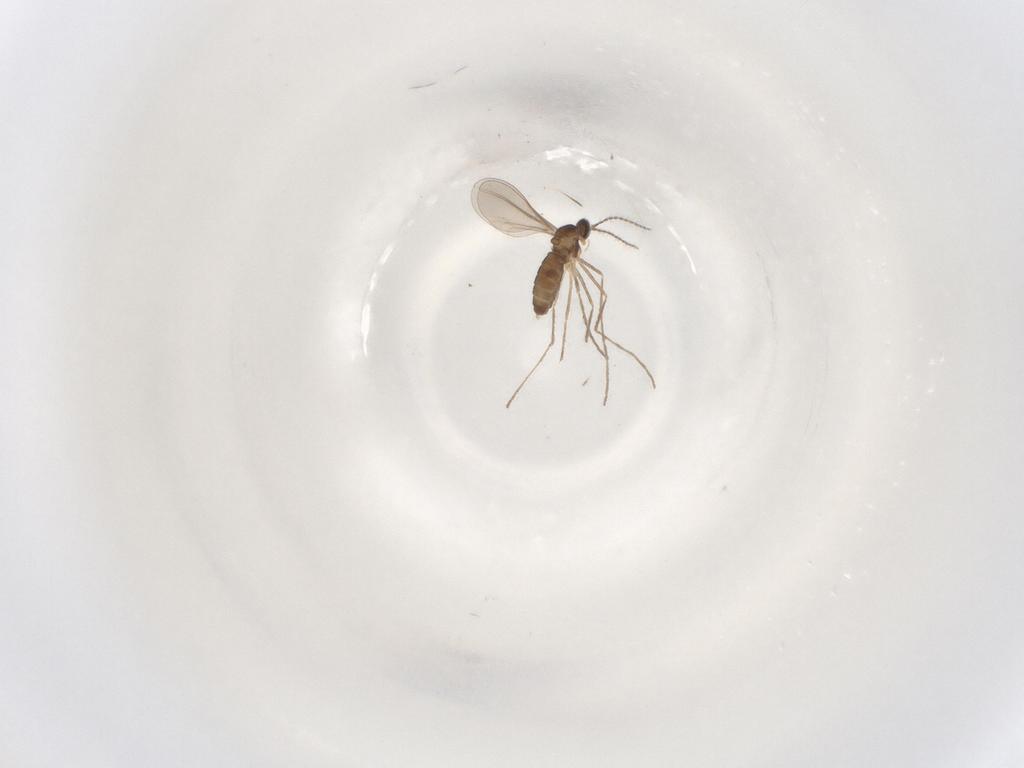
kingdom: Animalia
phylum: Arthropoda
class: Insecta
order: Diptera
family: Cecidomyiidae
